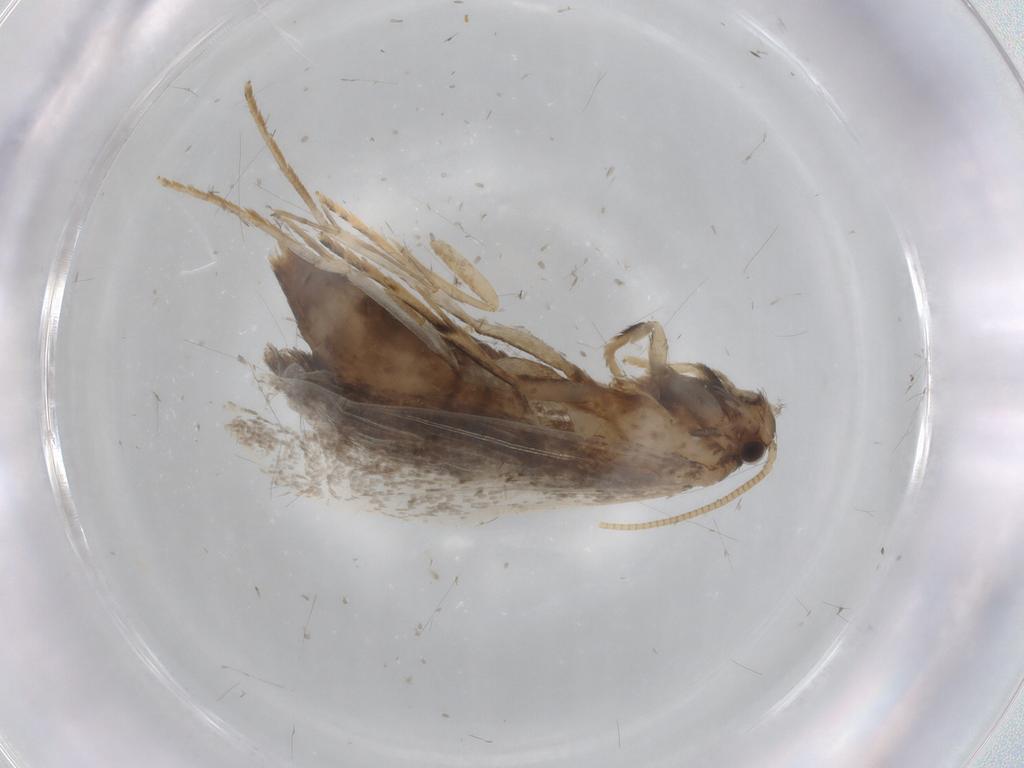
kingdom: Animalia
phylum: Arthropoda
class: Insecta
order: Lepidoptera
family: Tineidae
